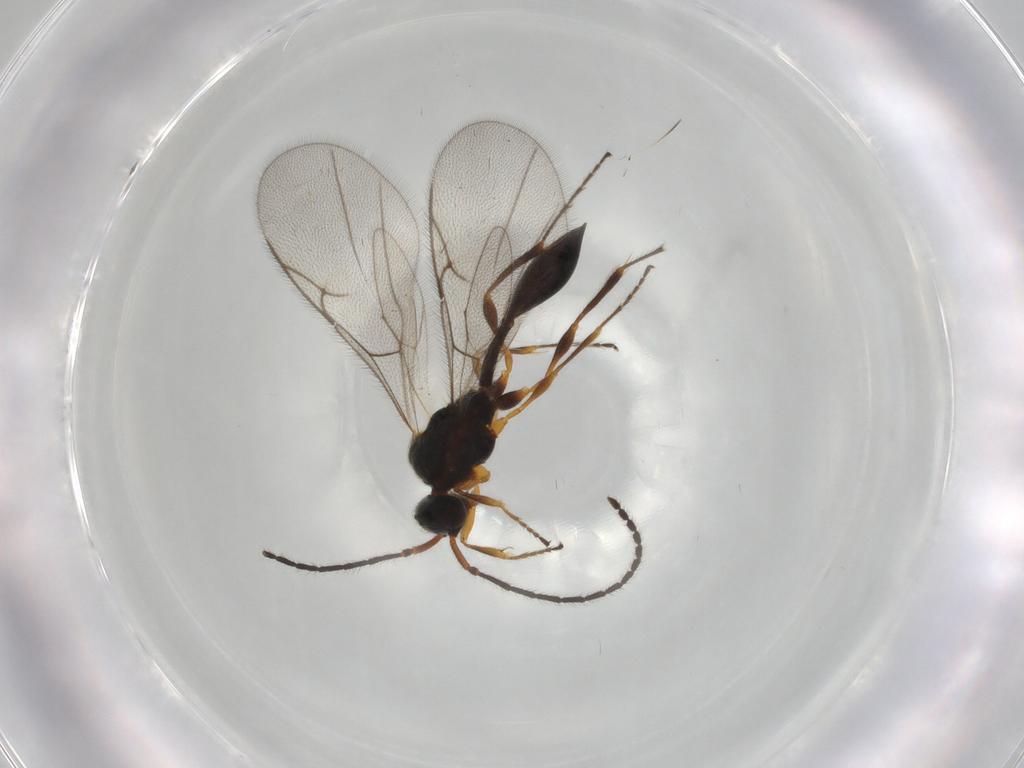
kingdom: Animalia
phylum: Arthropoda
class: Insecta
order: Hymenoptera
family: Diapriidae
